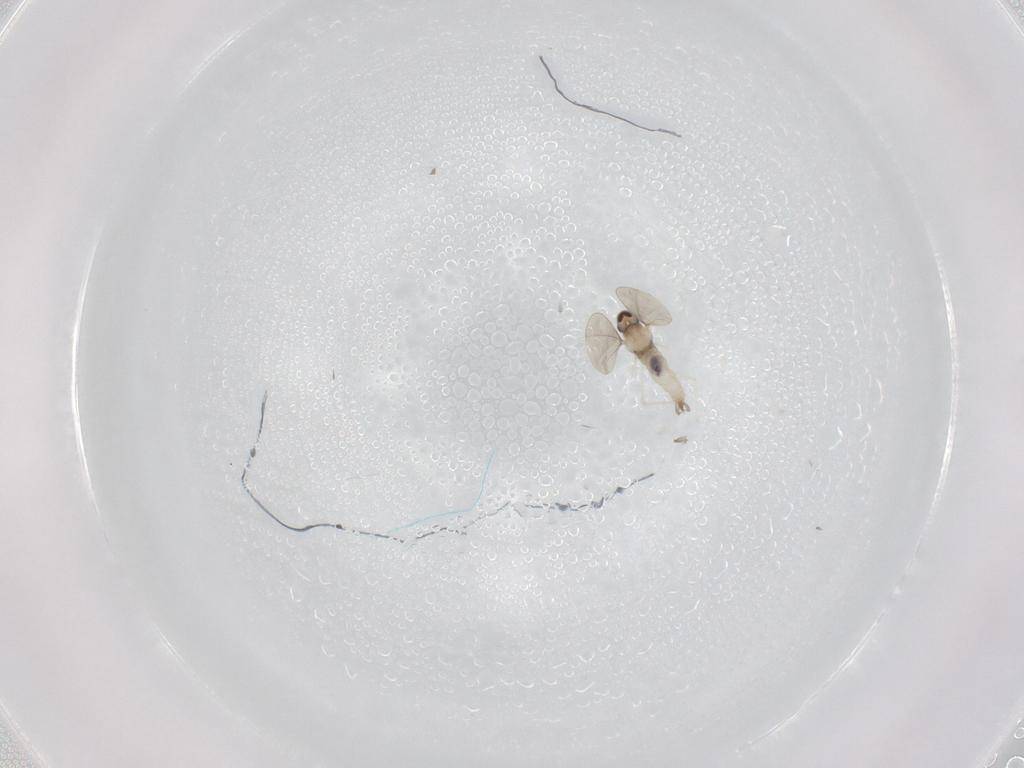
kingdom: Animalia
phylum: Arthropoda
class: Insecta
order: Diptera
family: Cecidomyiidae
